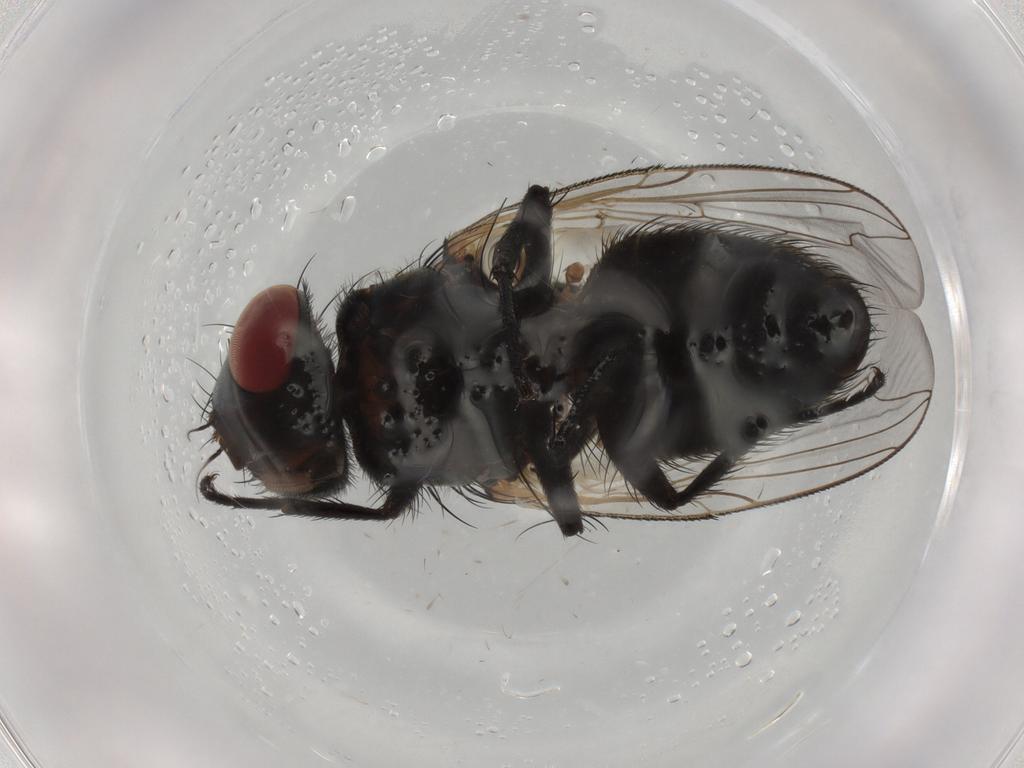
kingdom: Animalia
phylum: Arthropoda
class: Insecta
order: Diptera
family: Sarcophagidae
